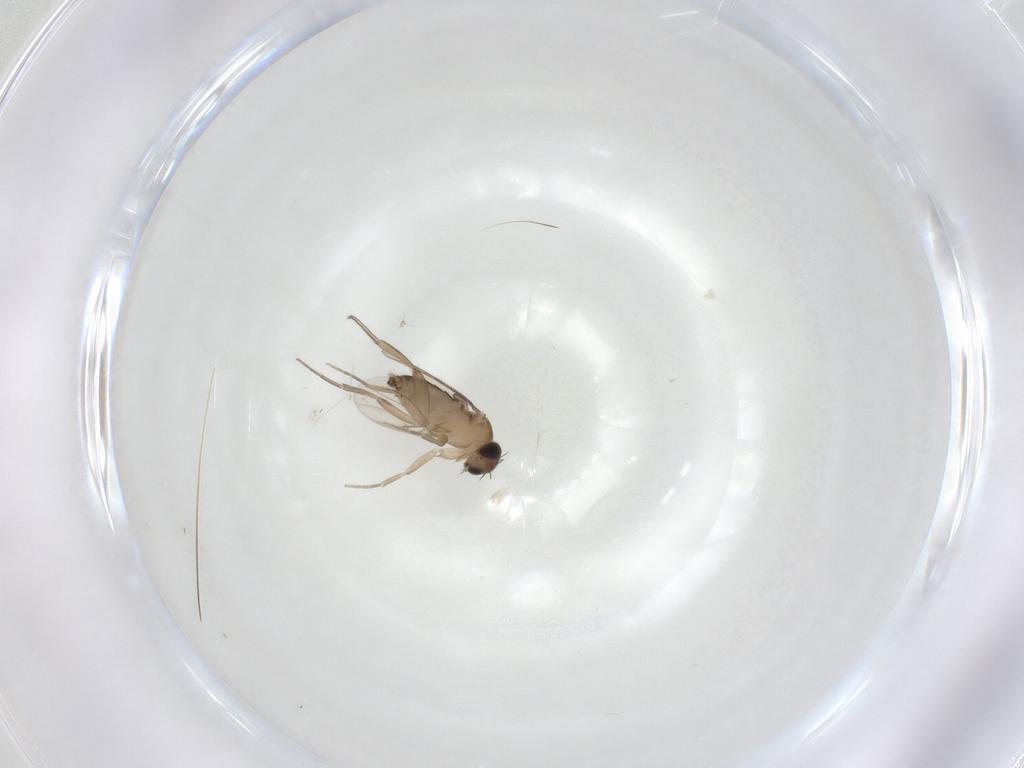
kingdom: Animalia
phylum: Arthropoda
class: Insecta
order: Diptera
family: Phoridae
